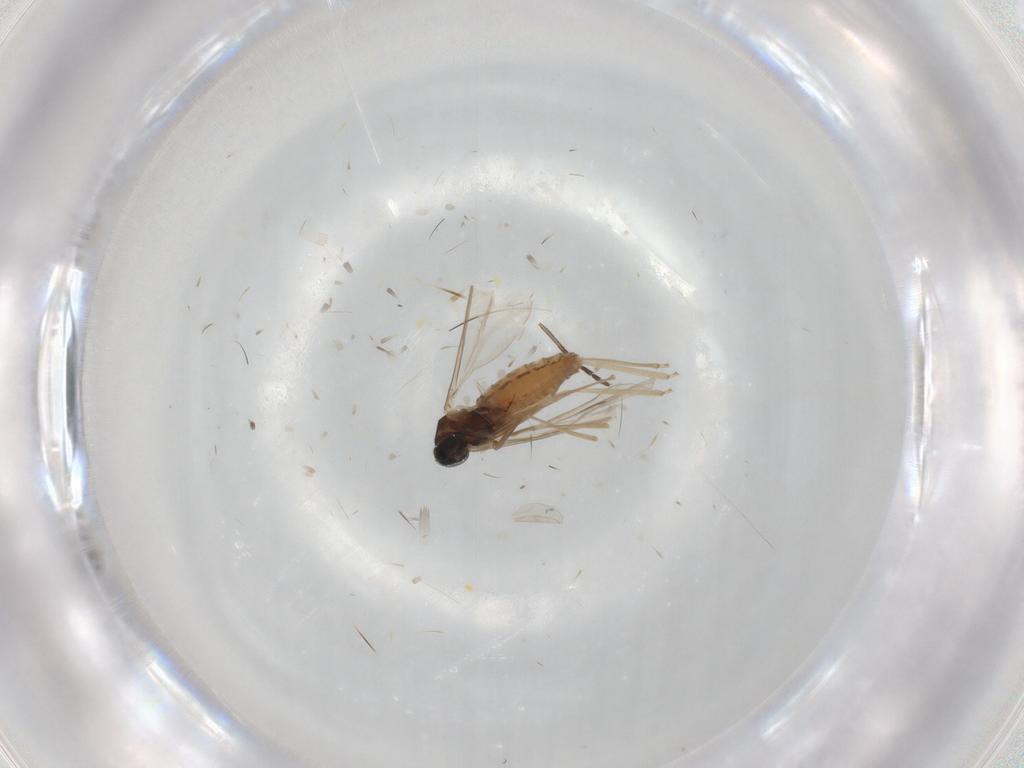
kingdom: Animalia
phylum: Arthropoda
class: Insecta
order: Diptera
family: Cecidomyiidae
